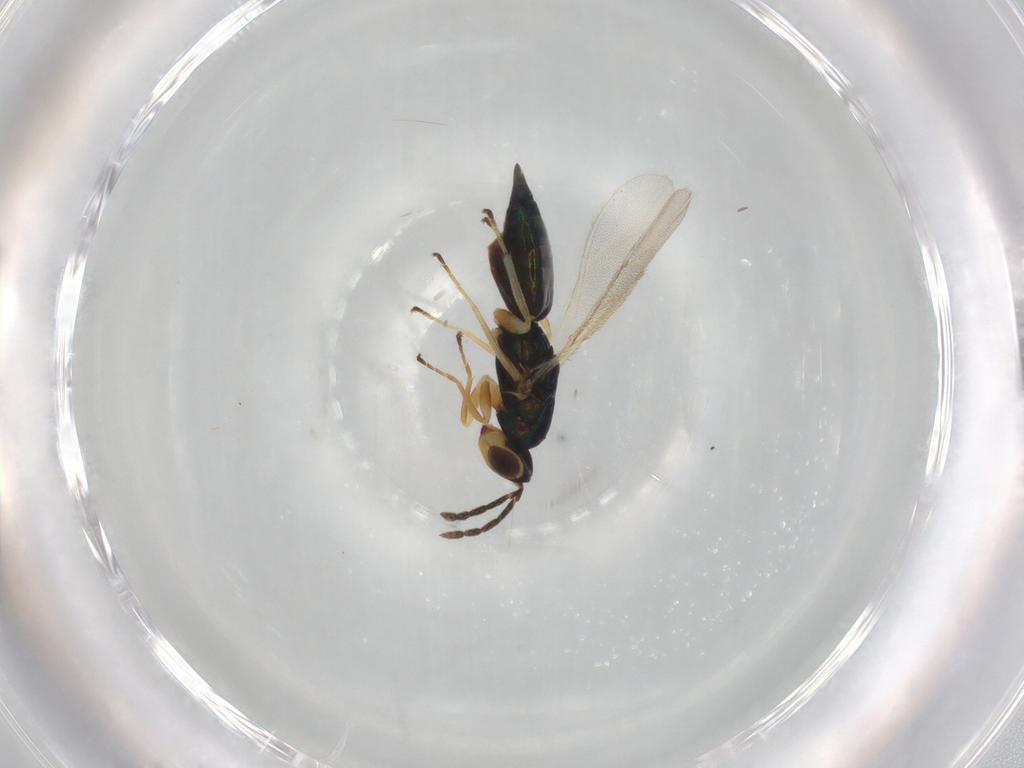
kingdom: Animalia
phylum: Arthropoda
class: Insecta
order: Hymenoptera
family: Eulophidae
